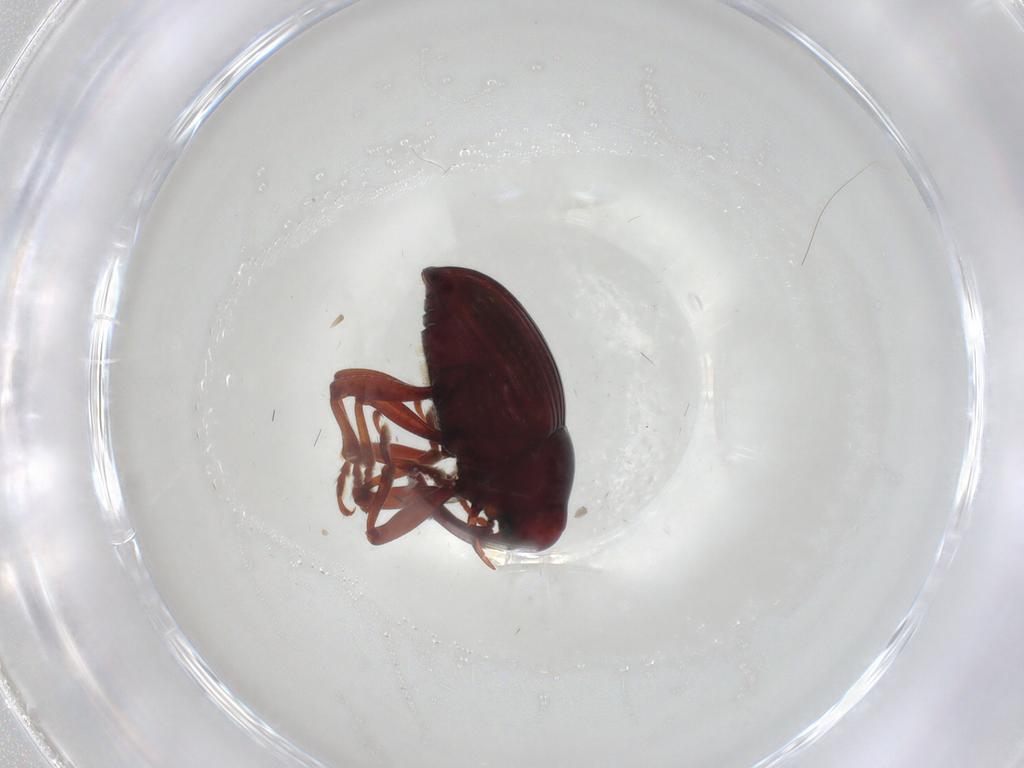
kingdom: Animalia
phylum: Arthropoda
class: Insecta
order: Coleoptera
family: Curculionidae
